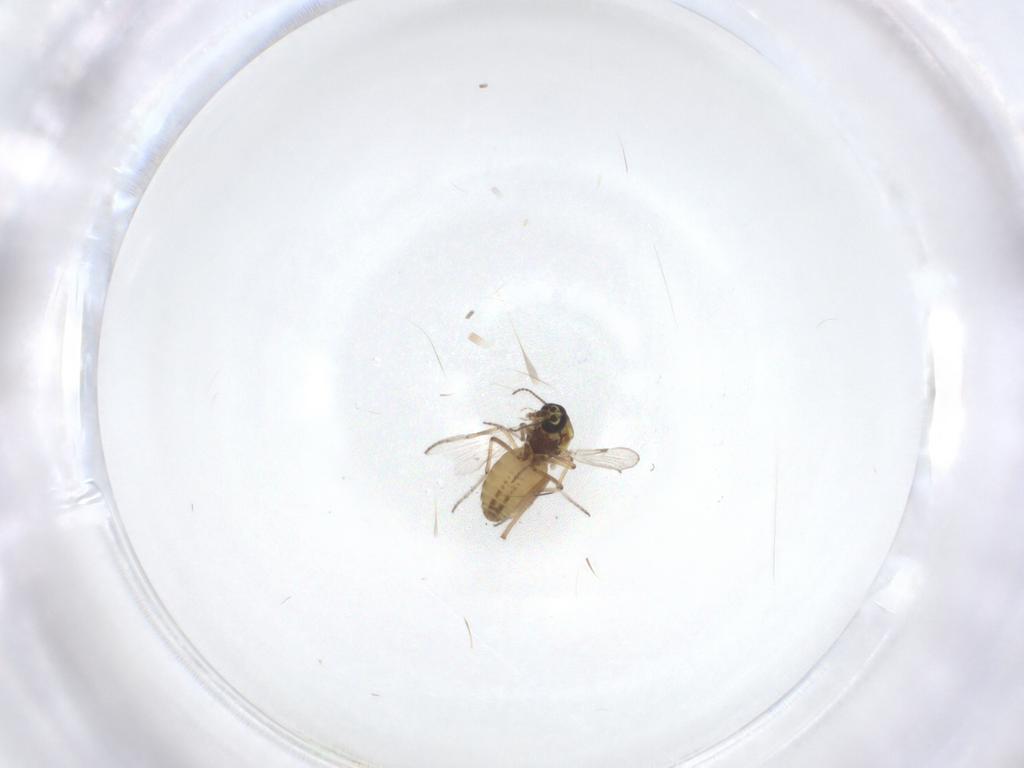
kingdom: Animalia
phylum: Arthropoda
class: Insecta
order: Diptera
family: Ceratopogonidae
